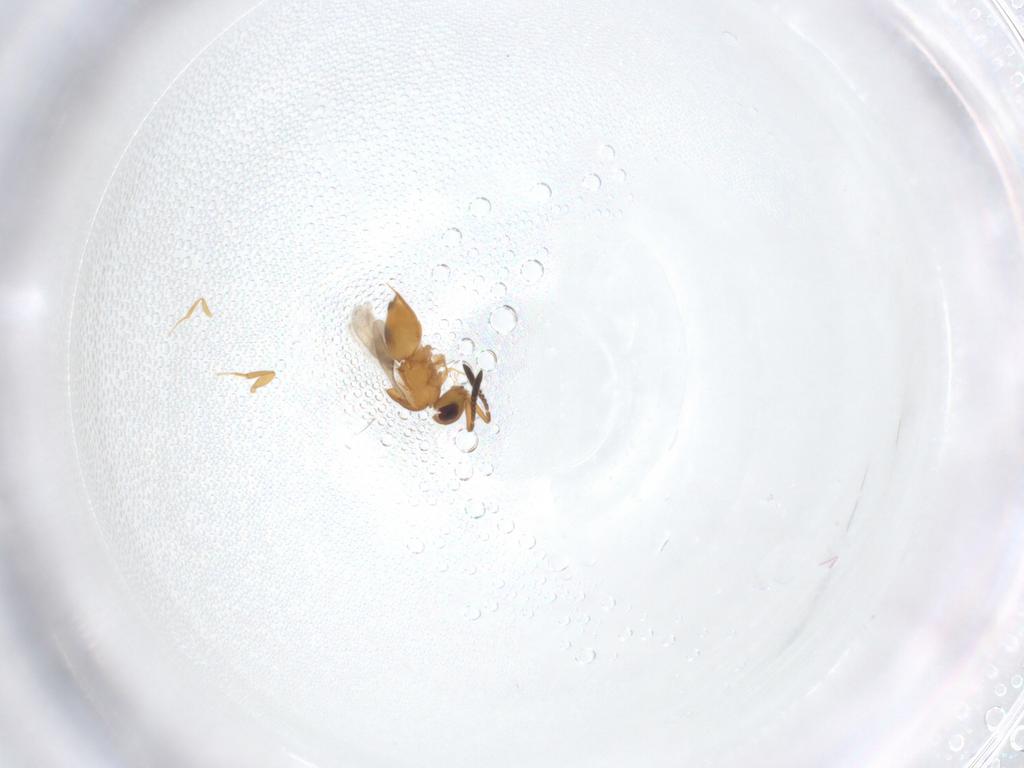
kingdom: Animalia
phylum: Arthropoda
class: Insecta
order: Hymenoptera
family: Ceraphronidae
